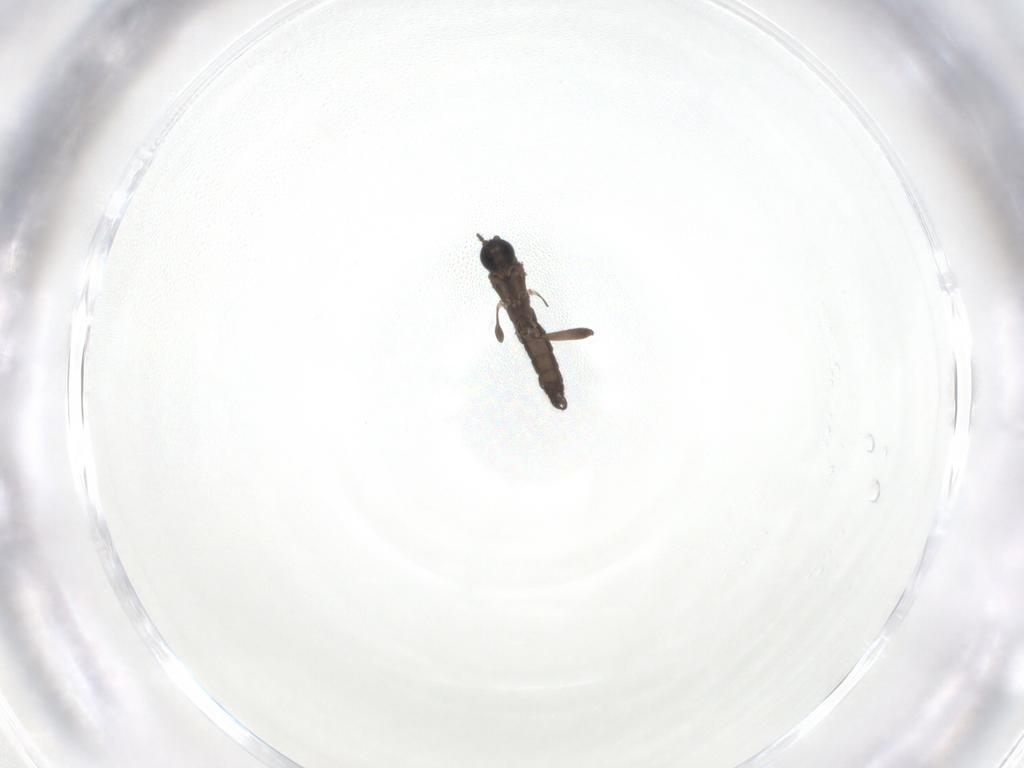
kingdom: Animalia
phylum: Arthropoda
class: Insecta
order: Diptera
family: Sciaridae
